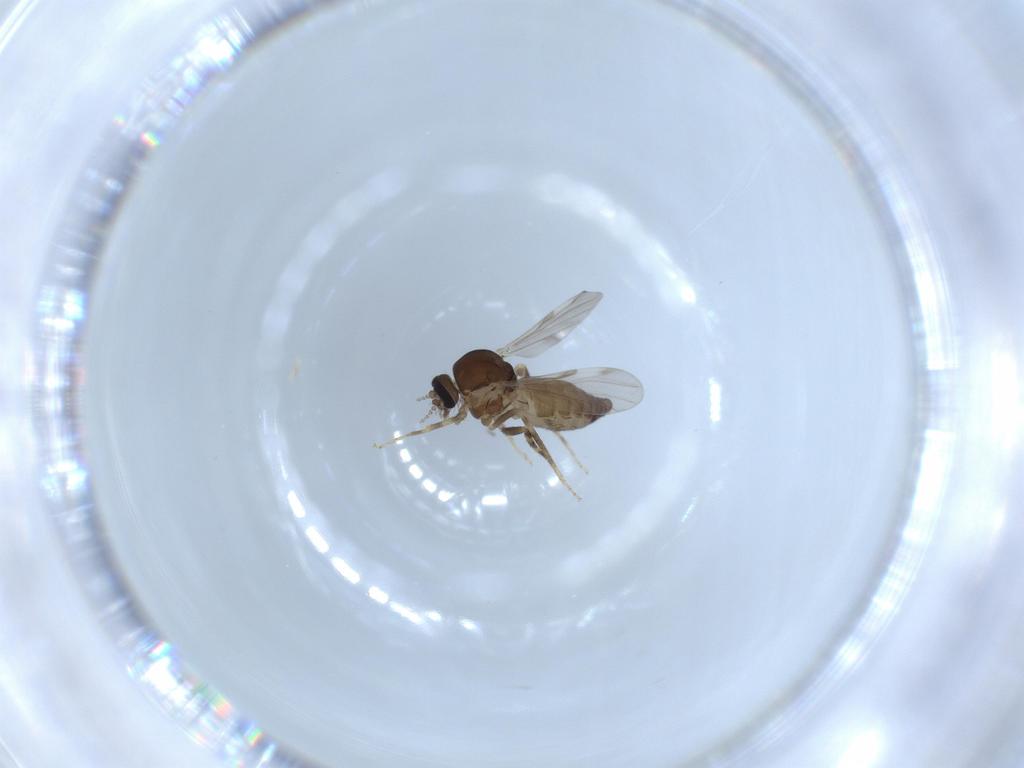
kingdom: Animalia
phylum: Arthropoda
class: Insecta
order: Diptera
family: Ceratopogonidae
